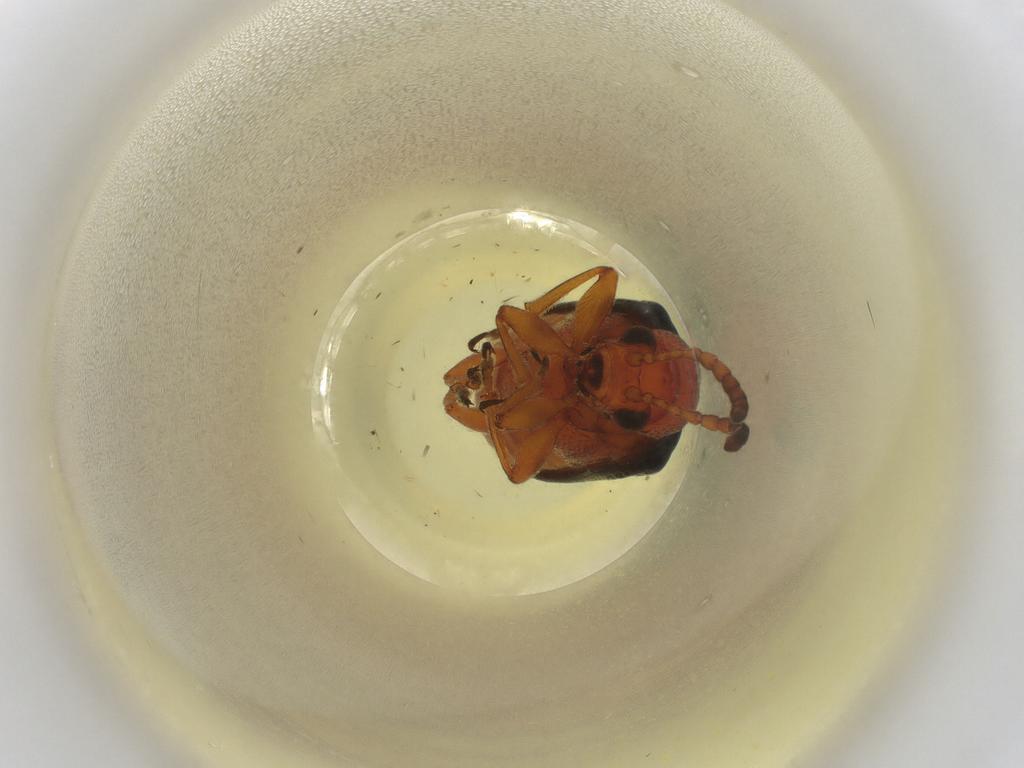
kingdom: Animalia
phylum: Arthropoda
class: Insecta
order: Coleoptera
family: Chrysomelidae
